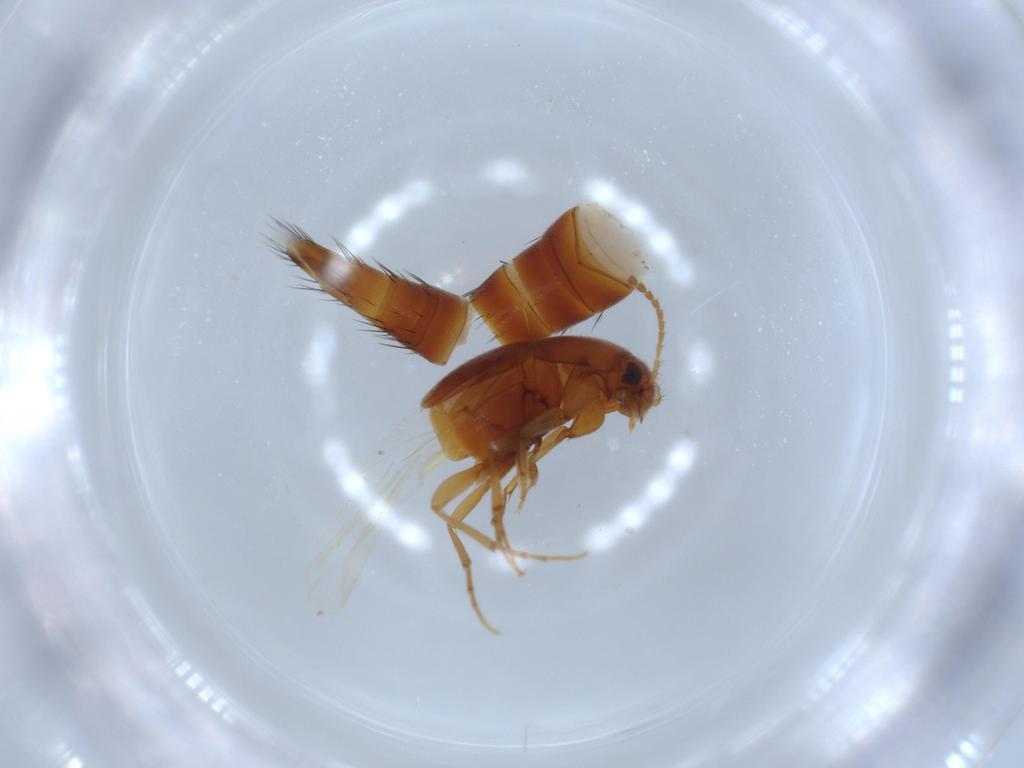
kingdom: Animalia
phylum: Arthropoda
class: Insecta
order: Coleoptera
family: Staphylinidae
